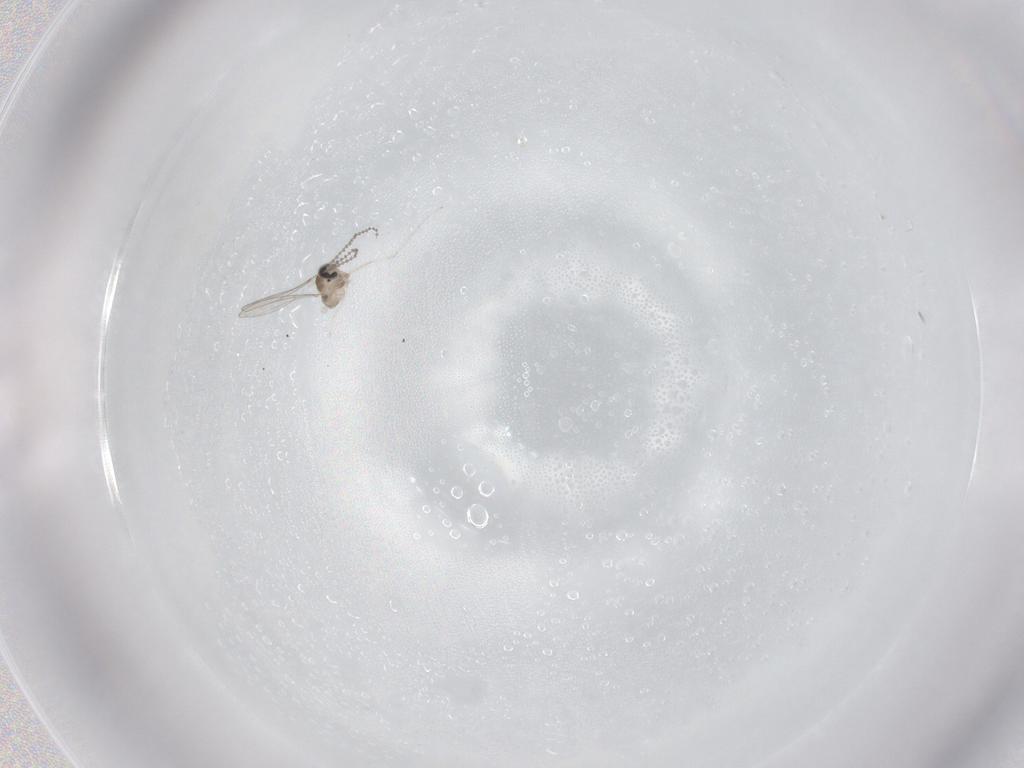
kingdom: Animalia
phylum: Arthropoda
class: Insecta
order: Diptera
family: Cecidomyiidae
